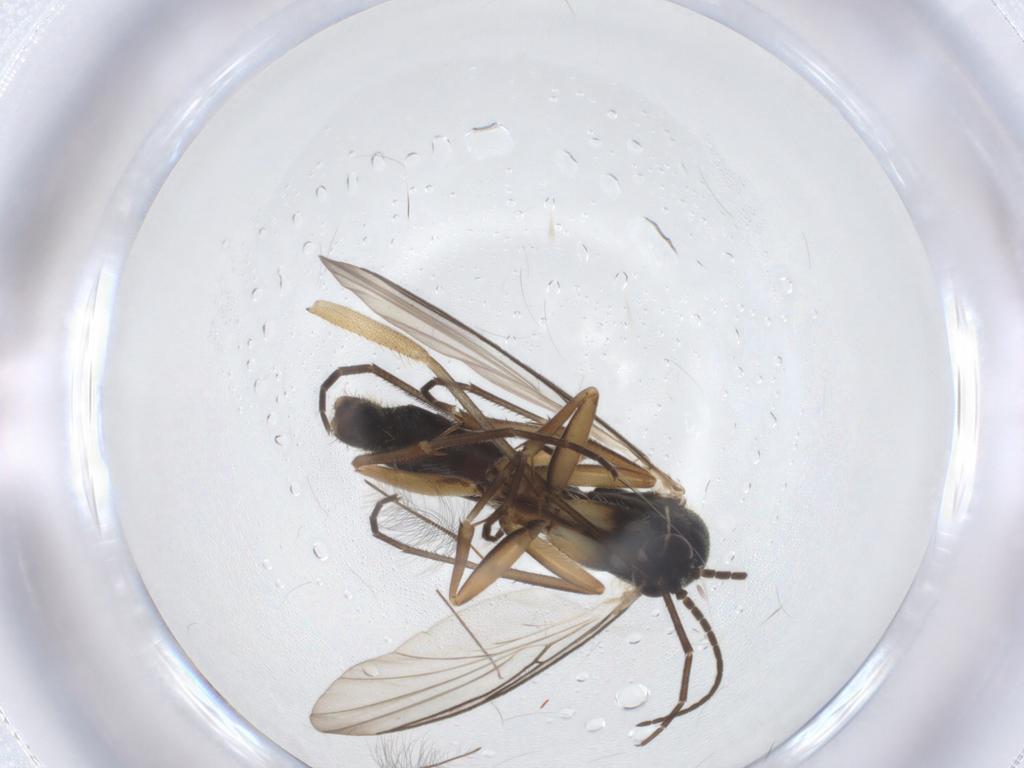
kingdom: Animalia
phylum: Arthropoda
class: Insecta
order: Diptera
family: Mycetophilidae
